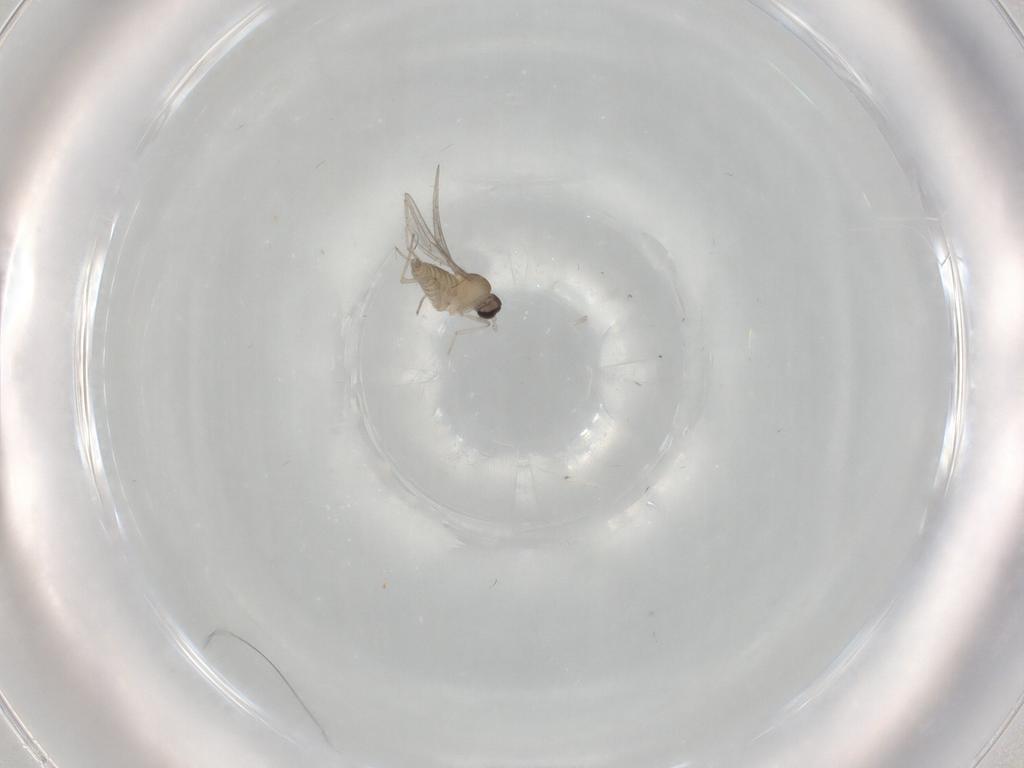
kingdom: Animalia
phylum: Arthropoda
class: Insecta
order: Diptera
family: Cecidomyiidae
